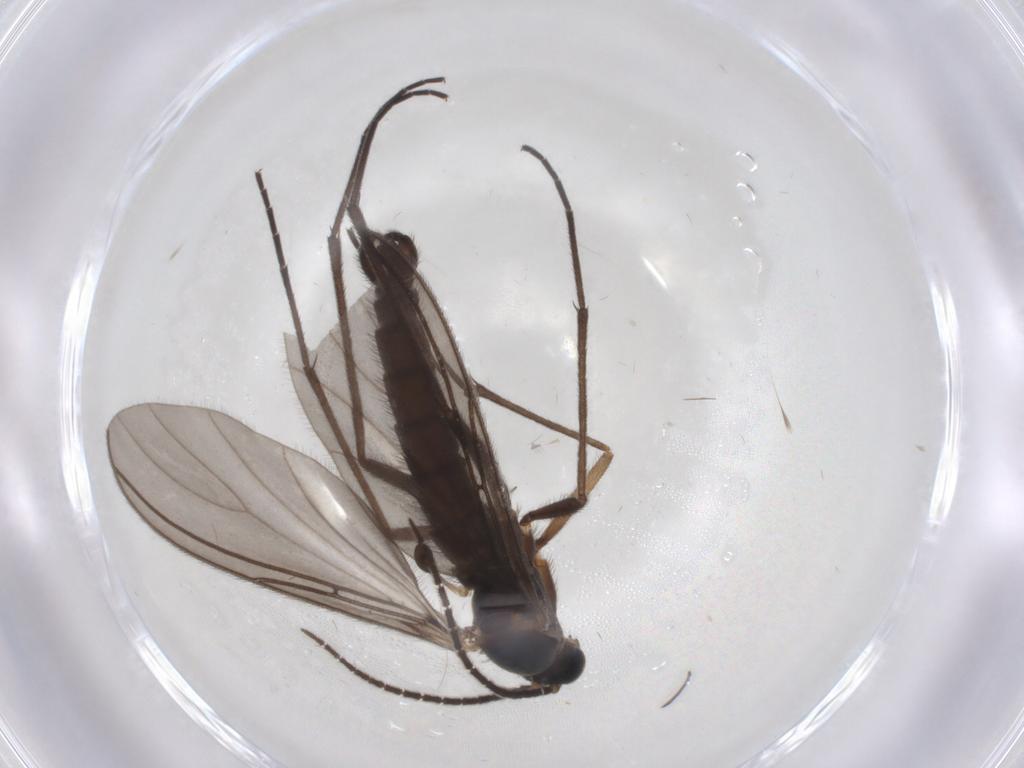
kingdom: Animalia
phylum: Arthropoda
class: Insecta
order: Diptera
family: Sciaridae
